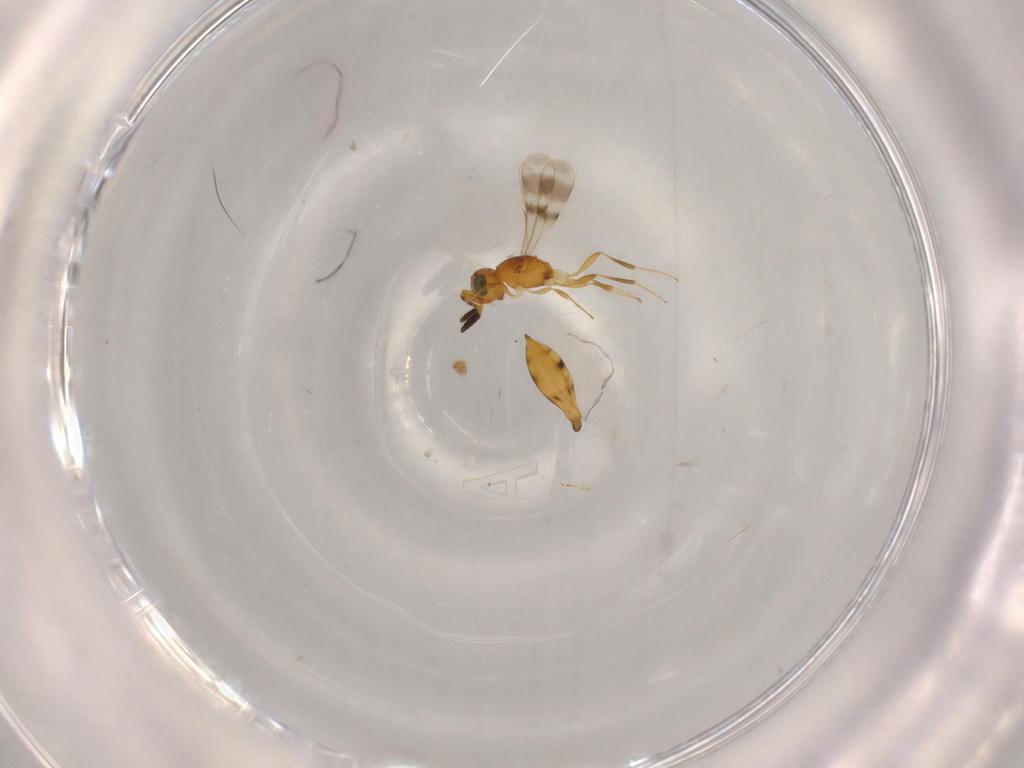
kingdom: Animalia
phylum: Arthropoda
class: Insecta
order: Hymenoptera
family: Scelionidae
